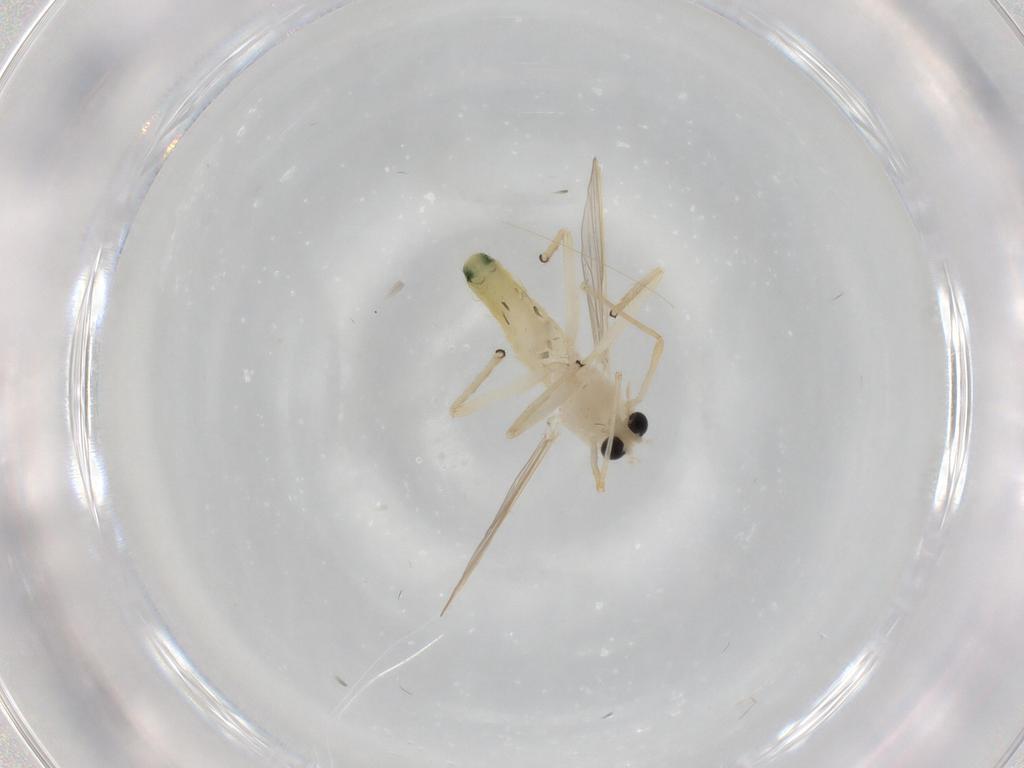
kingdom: Animalia
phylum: Arthropoda
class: Insecta
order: Diptera
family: Chironomidae
